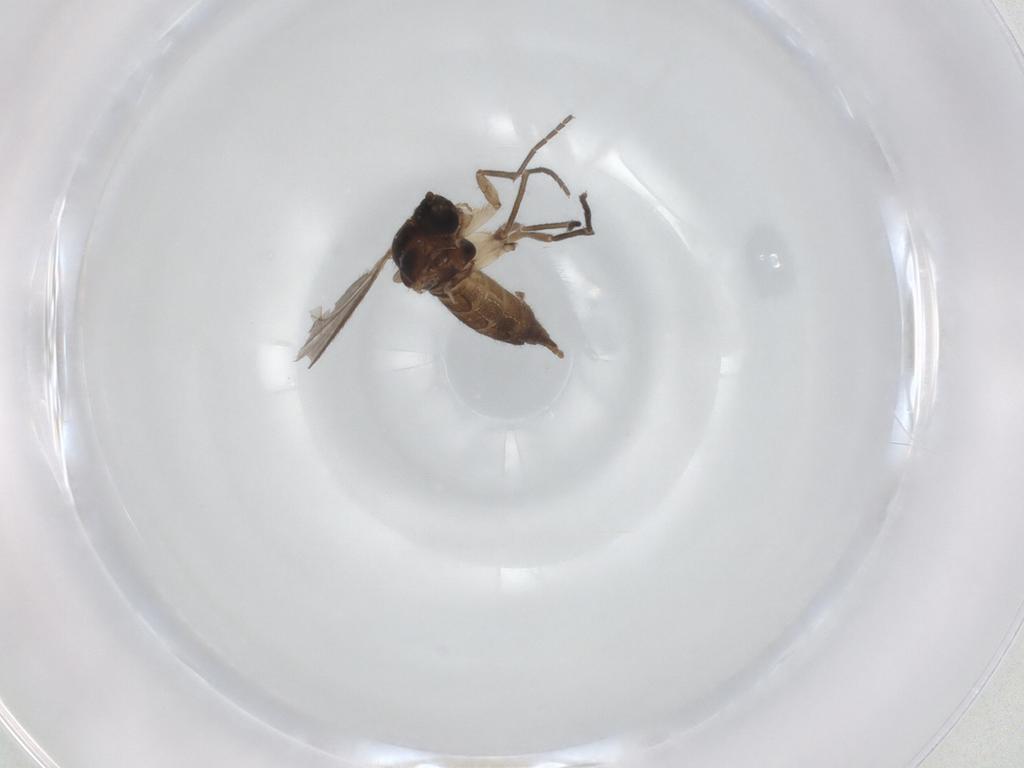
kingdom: Animalia
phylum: Arthropoda
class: Insecta
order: Diptera
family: Sciaridae
